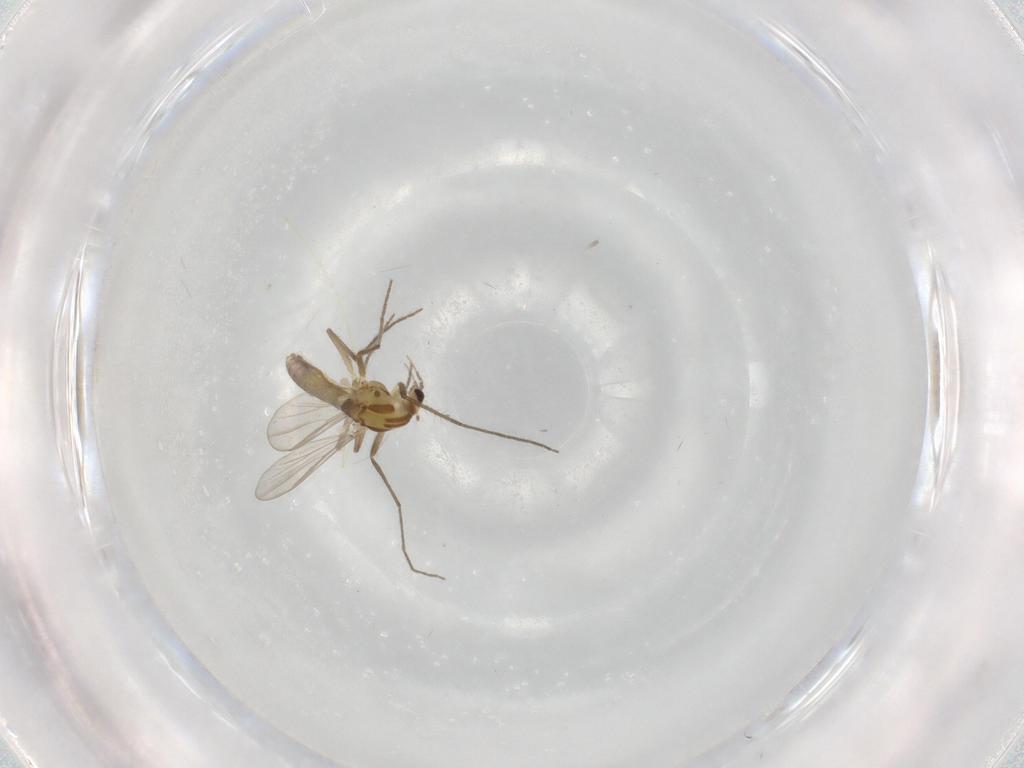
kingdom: Animalia
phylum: Arthropoda
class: Insecta
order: Diptera
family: Chironomidae
